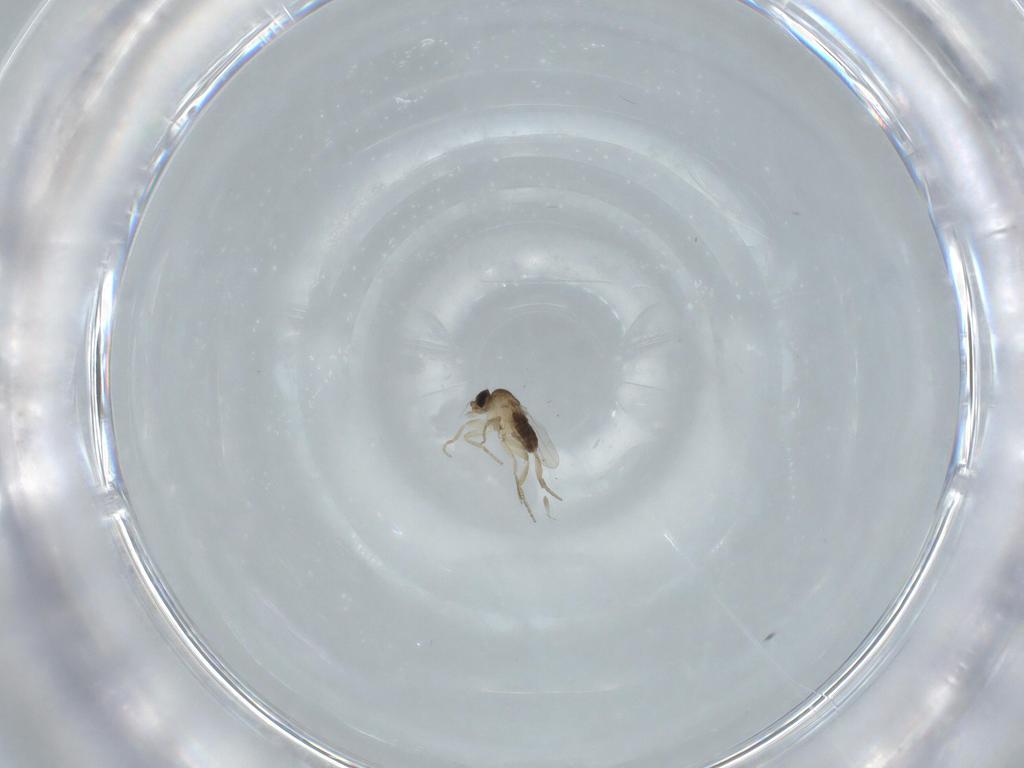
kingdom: Animalia
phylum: Arthropoda
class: Insecta
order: Diptera
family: Phoridae
